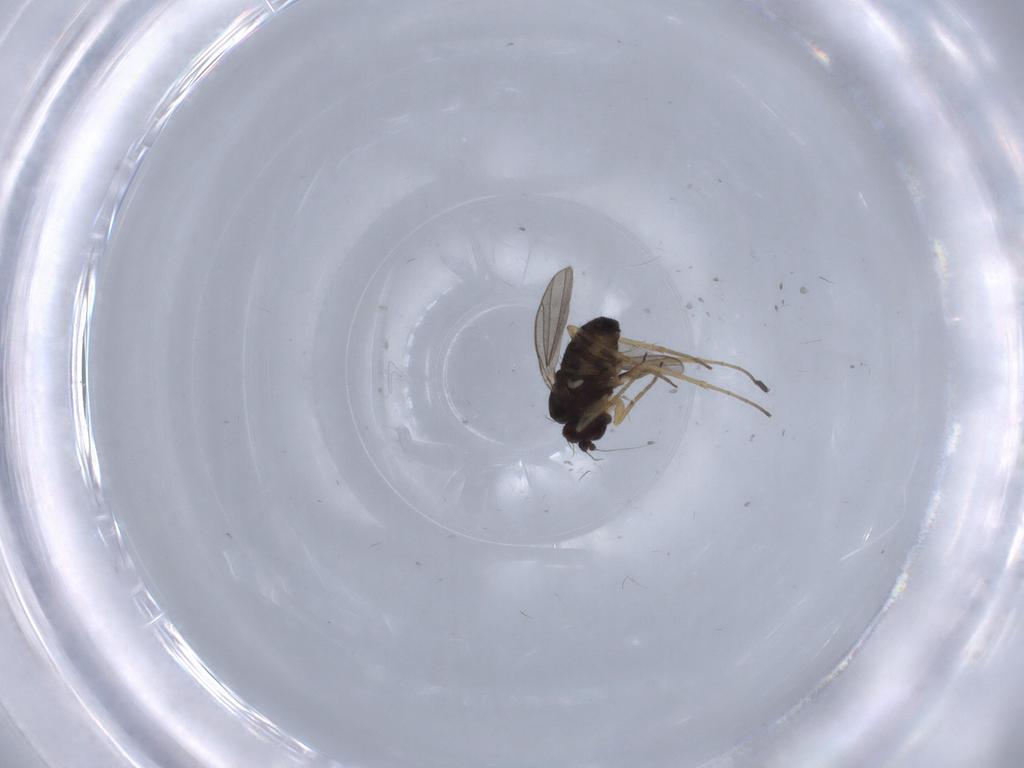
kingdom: Animalia
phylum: Arthropoda
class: Insecta
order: Diptera
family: Dolichopodidae
